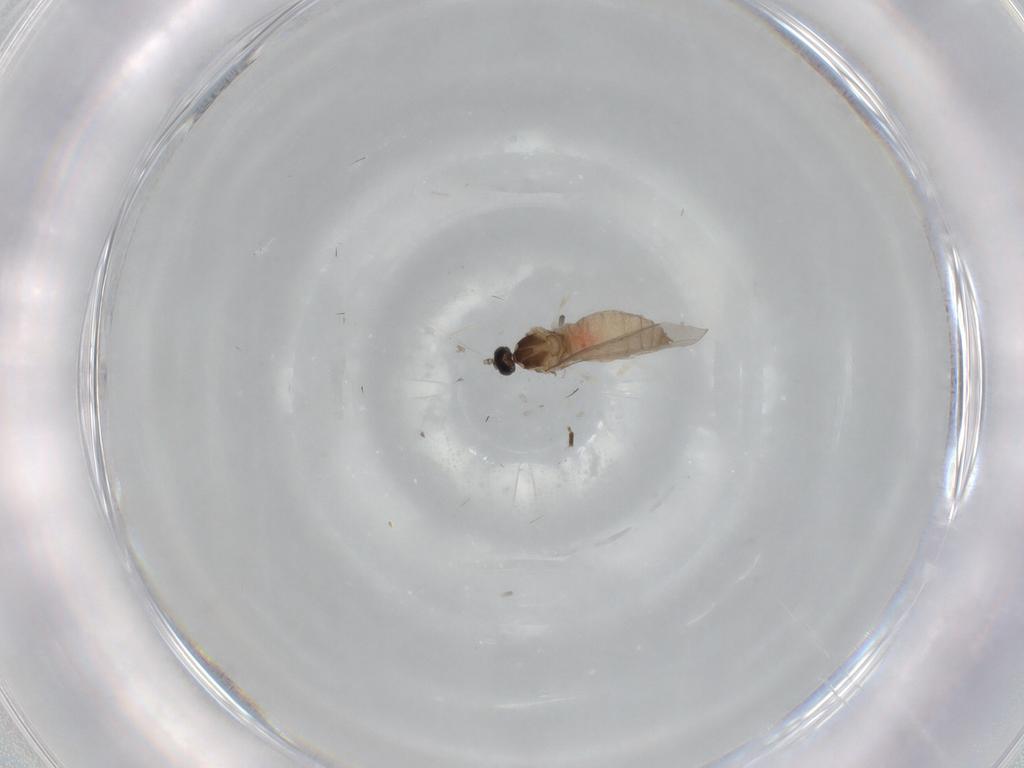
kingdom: Animalia
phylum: Arthropoda
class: Insecta
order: Diptera
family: Cecidomyiidae
